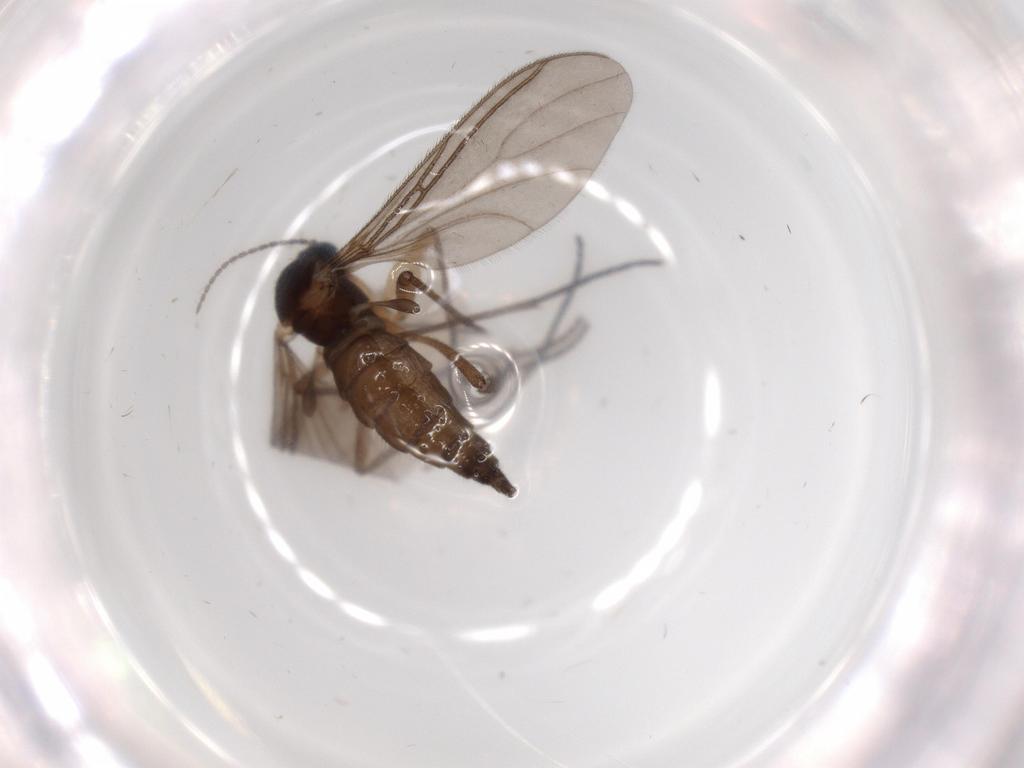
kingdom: Animalia
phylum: Arthropoda
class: Insecta
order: Diptera
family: Sciaridae
